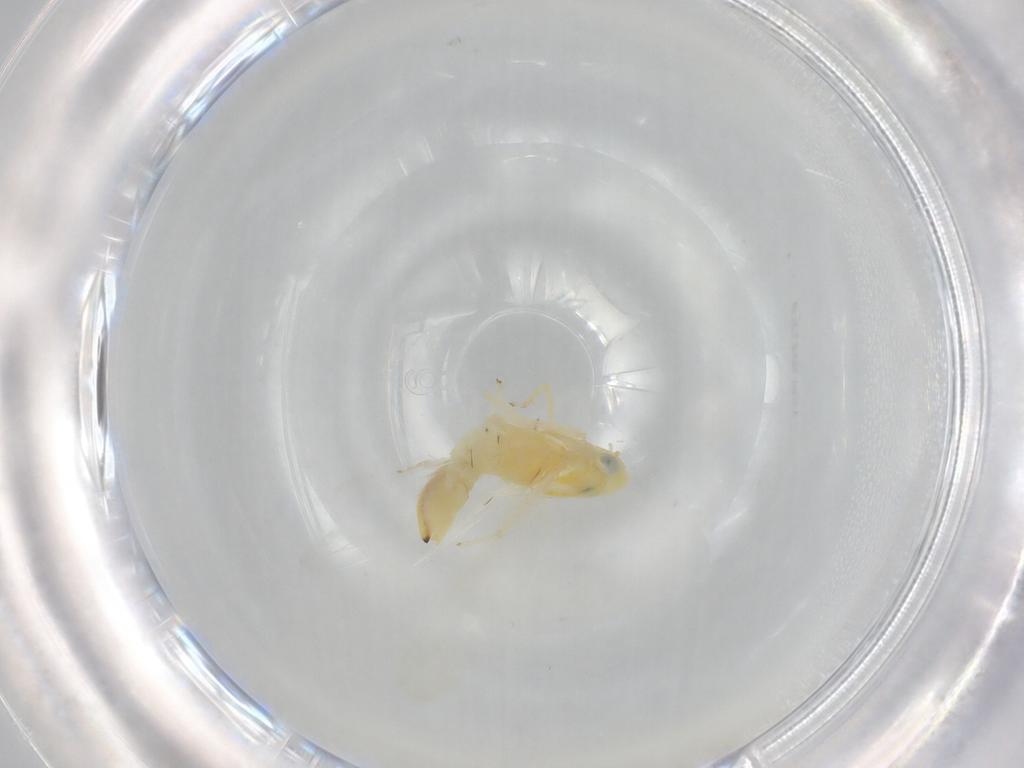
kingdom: Animalia
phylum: Arthropoda
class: Insecta
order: Hemiptera
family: Cicadellidae
